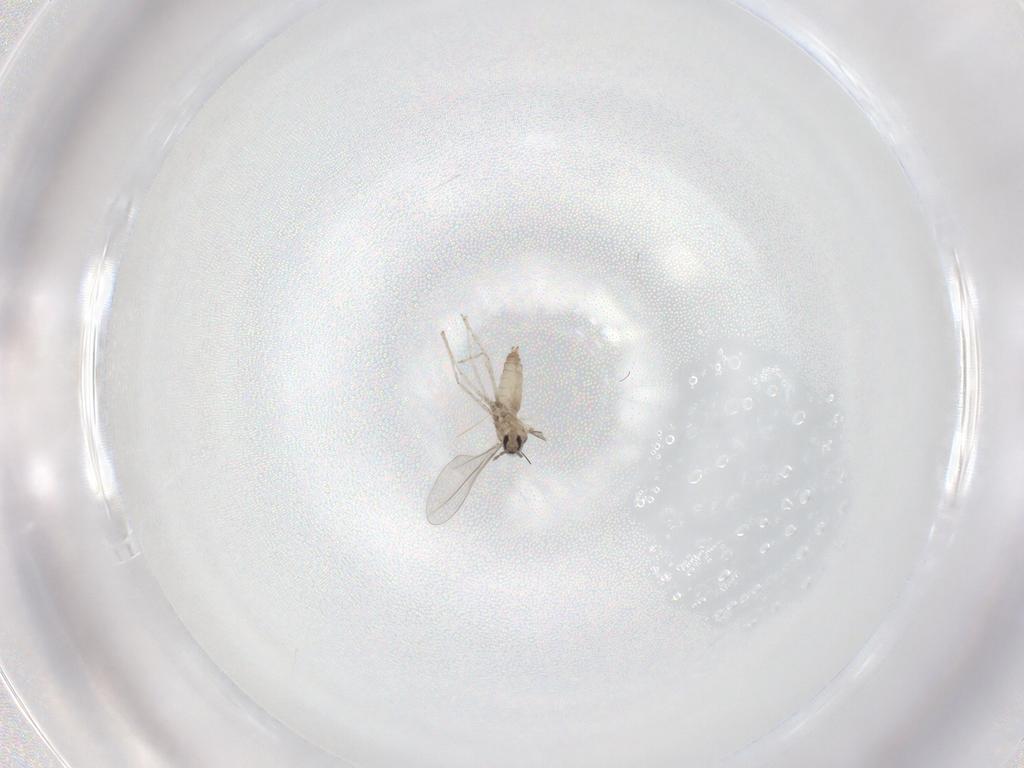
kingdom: Animalia
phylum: Arthropoda
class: Insecta
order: Diptera
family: Cecidomyiidae
